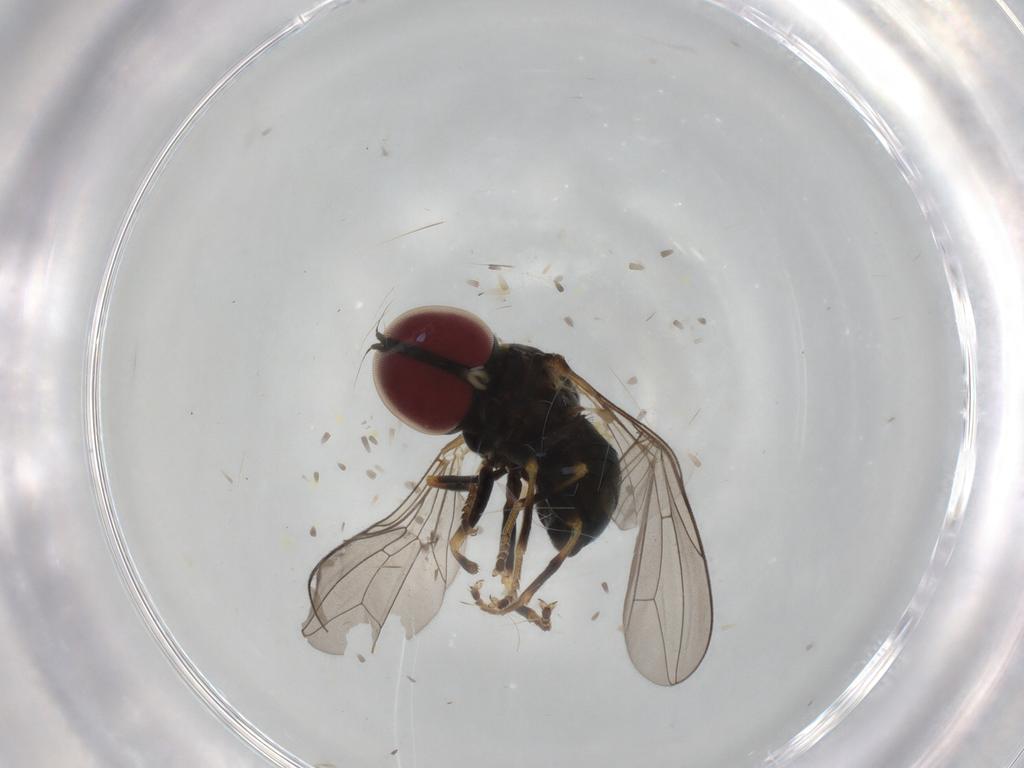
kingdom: Animalia
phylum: Arthropoda
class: Insecta
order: Diptera
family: Pipunculidae
